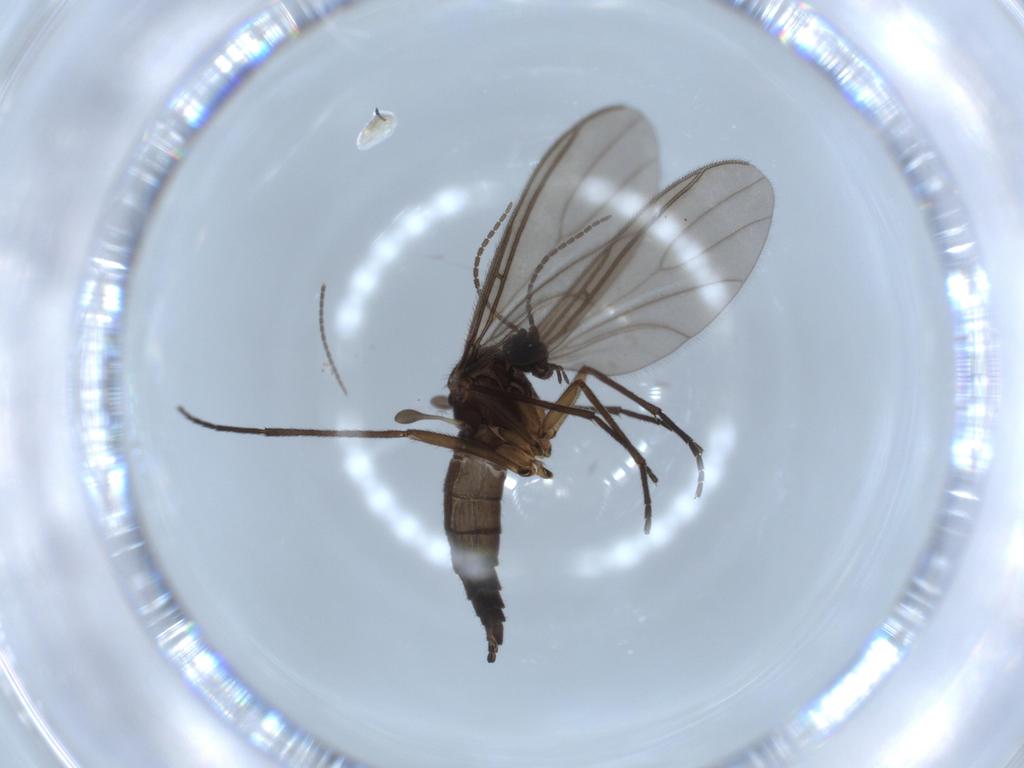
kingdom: Animalia
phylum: Arthropoda
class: Insecta
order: Diptera
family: Sciaridae
